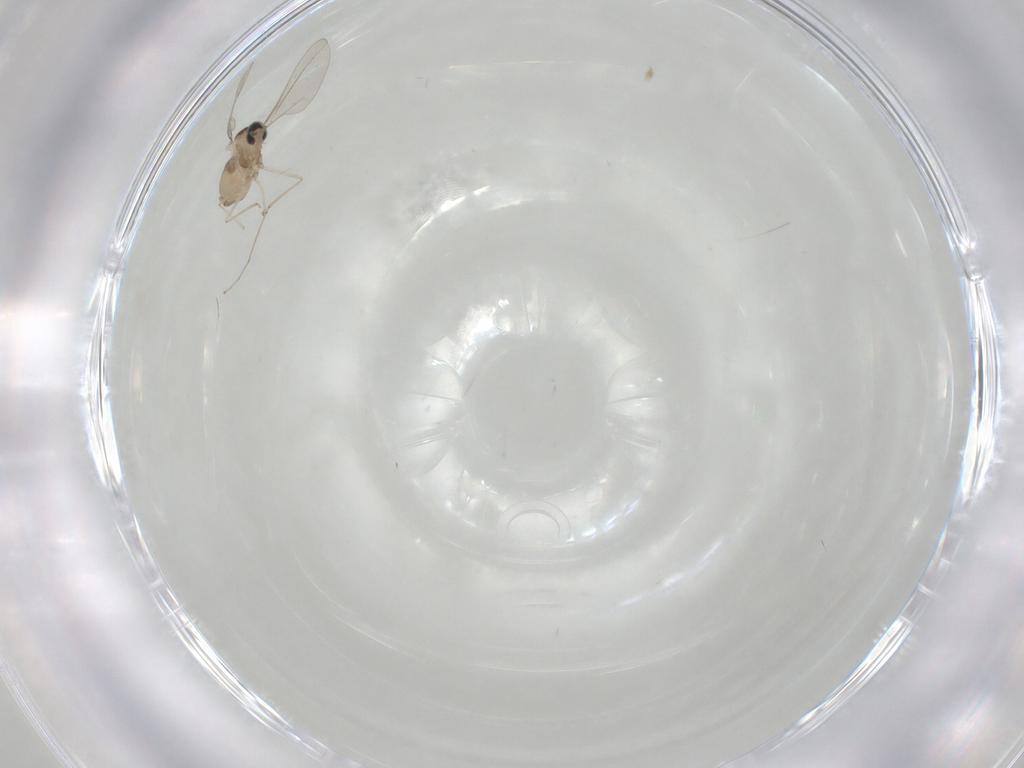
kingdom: Animalia
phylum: Arthropoda
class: Insecta
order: Diptera
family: Cecidomyiidae
